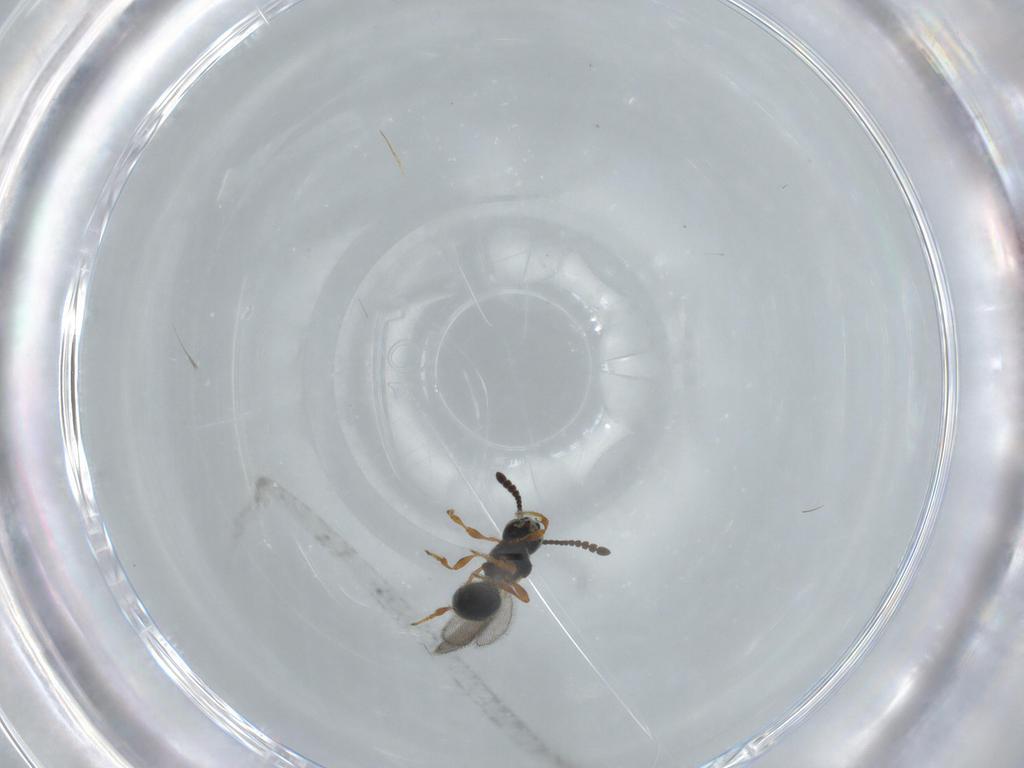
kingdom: Animalia
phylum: Arthropoda
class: Insecta
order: Hymenoptera
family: Diapriidae
